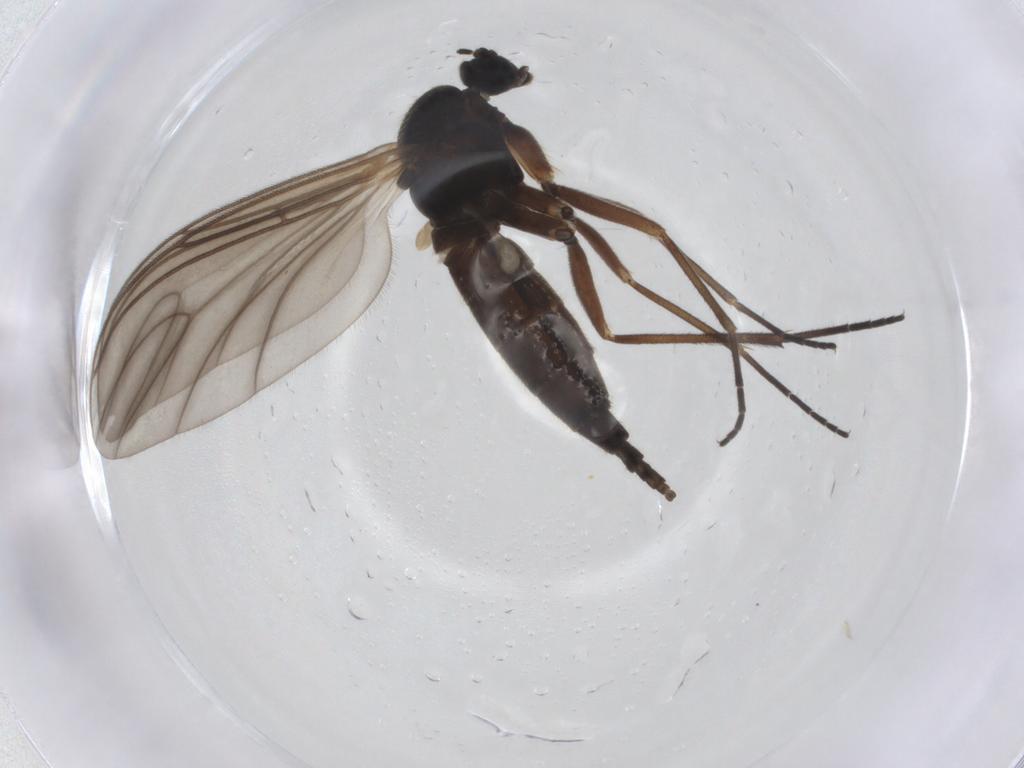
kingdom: Animalia
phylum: Arthropoda
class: Insecta
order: Diptera
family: Sciaridae
